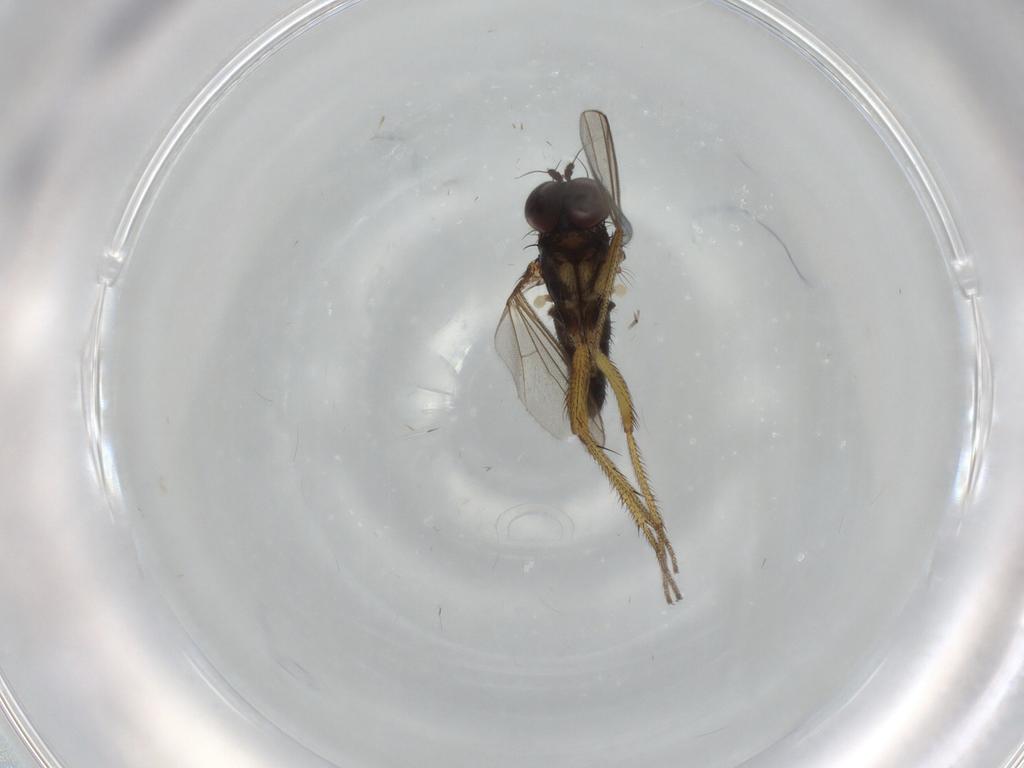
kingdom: Animalia
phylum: Arthropoda
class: Insecta
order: Diptera
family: Dolichopodidae
